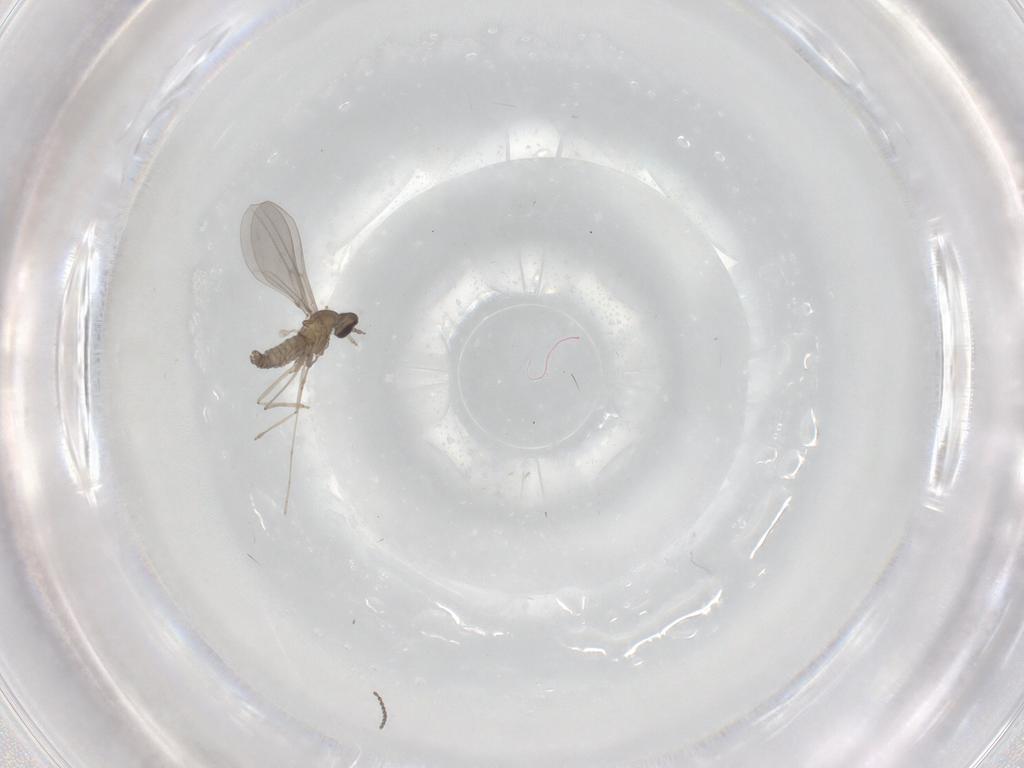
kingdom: Animalia
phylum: Arthropoda
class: Insecta
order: Diptera
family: Ceratopogonidae
